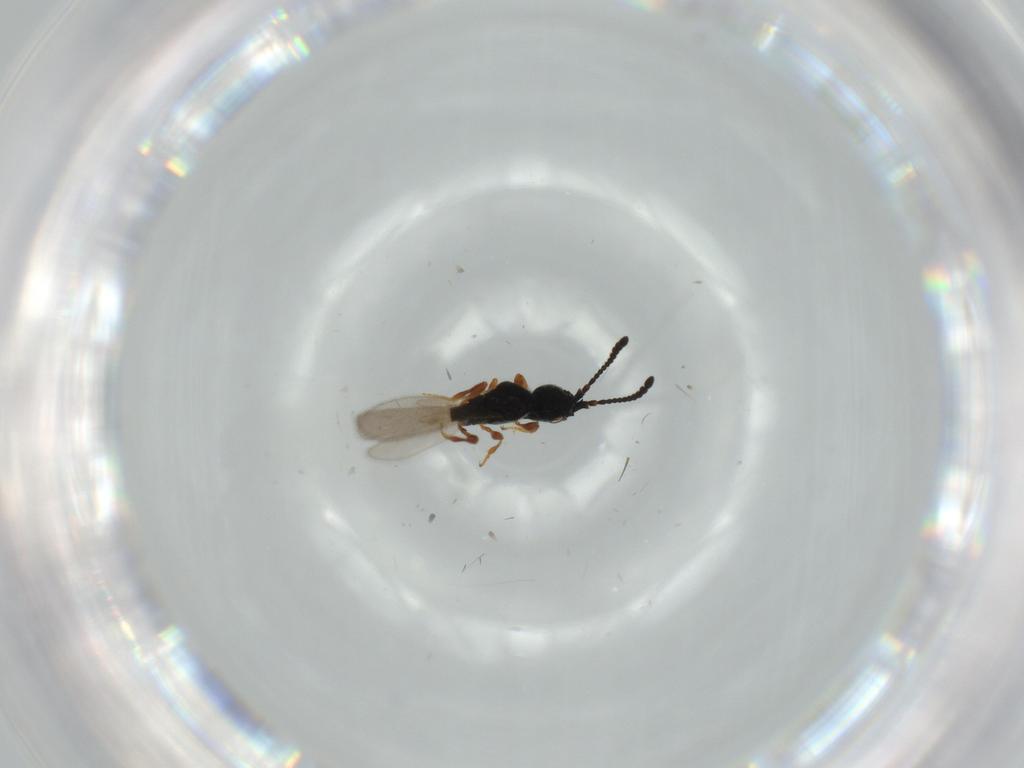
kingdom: Animalia
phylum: Arthropoda
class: Insecta
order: Hymenoptera
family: Diapriidae
